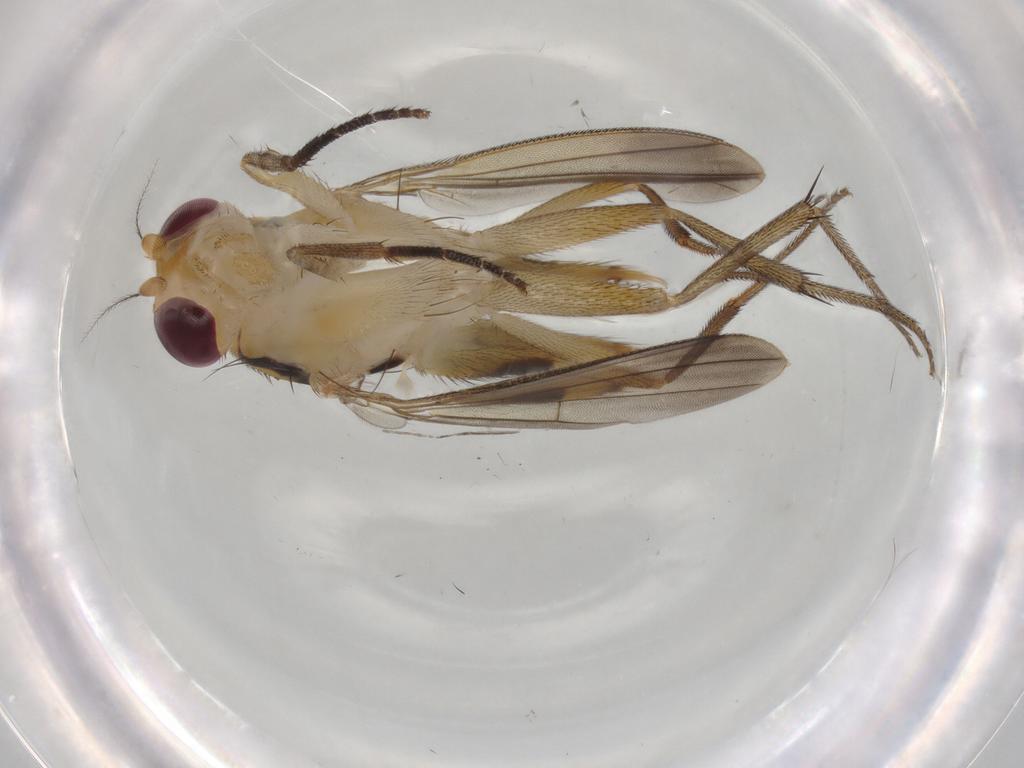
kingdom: Animalia
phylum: Arthropoda
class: Insecta
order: Diptera
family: Clusiidae
